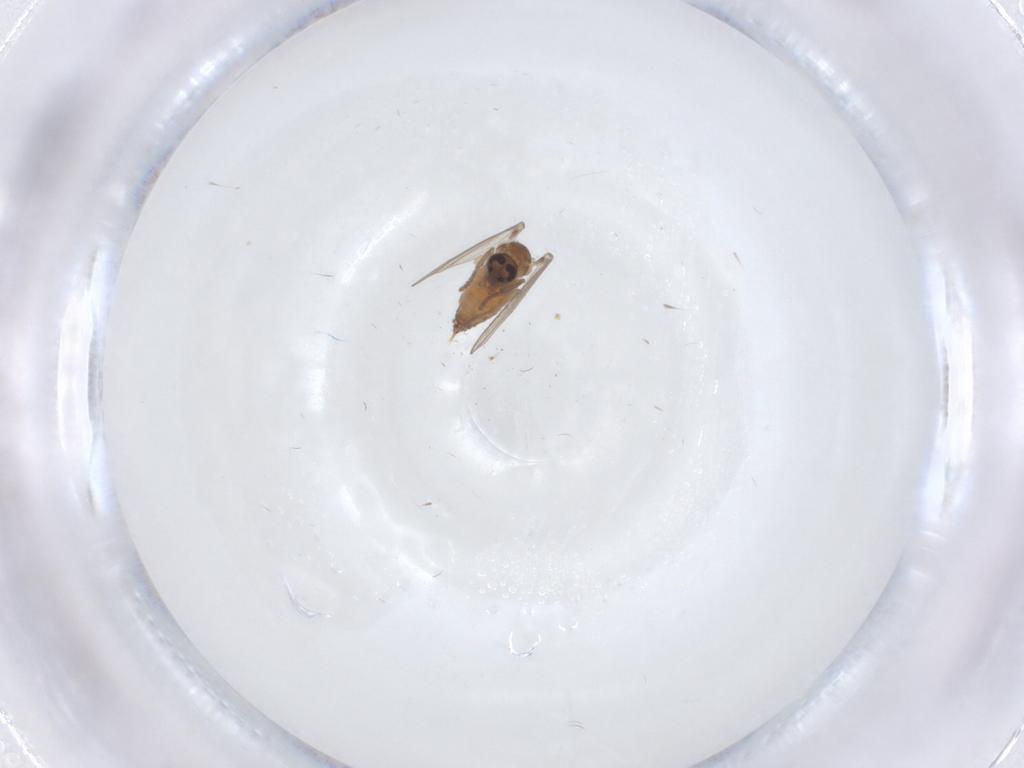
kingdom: Animalia
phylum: Arthropoda
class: Insecta
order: Diptera
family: Psychodidae
